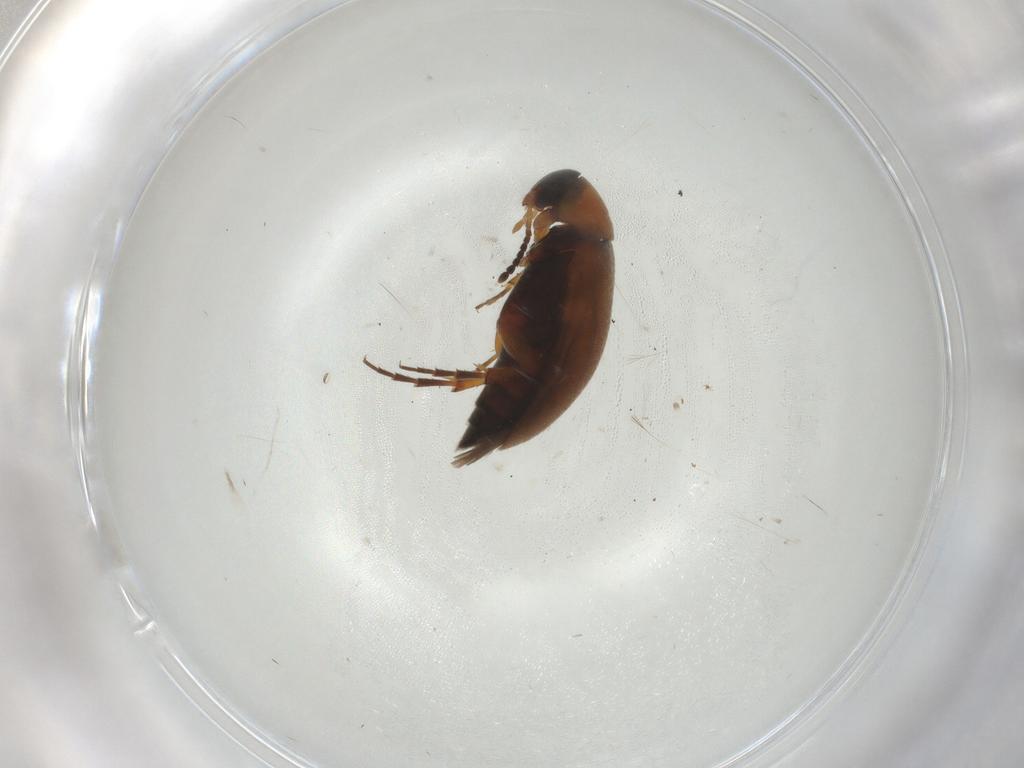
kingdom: Animalia
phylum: Arthropoda
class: Insecta
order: Coleoptera
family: Scraptiidae
